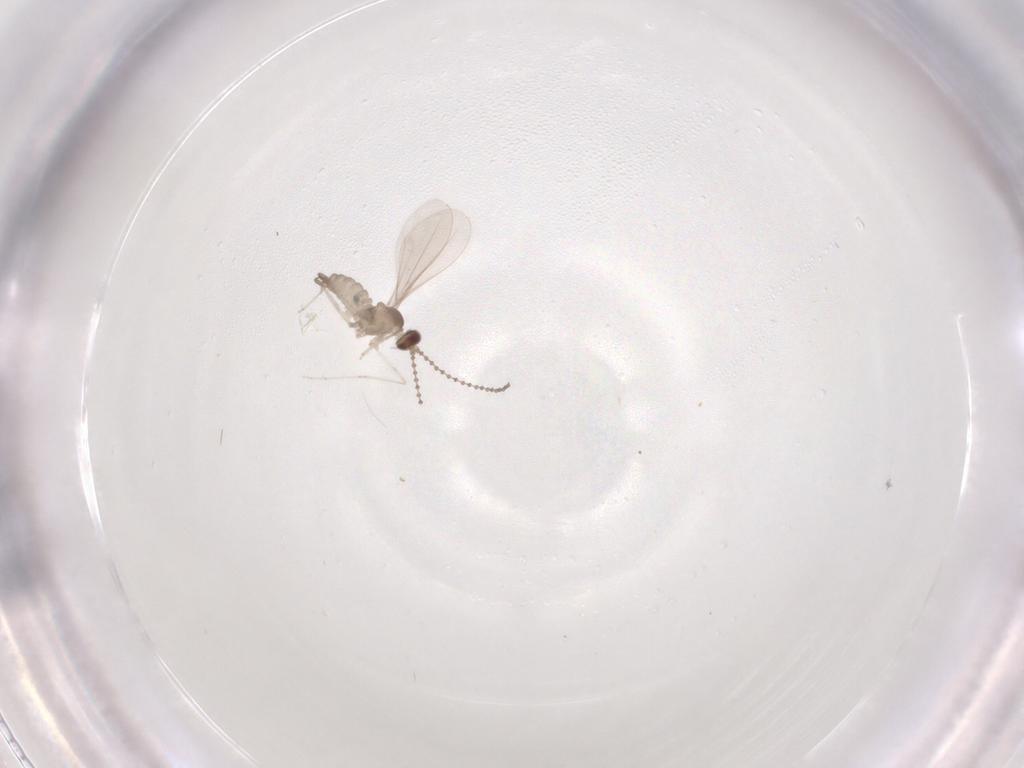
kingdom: Animalia
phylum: Arthropoda
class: Insecta
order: Diptera
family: Cecidomyiidae
